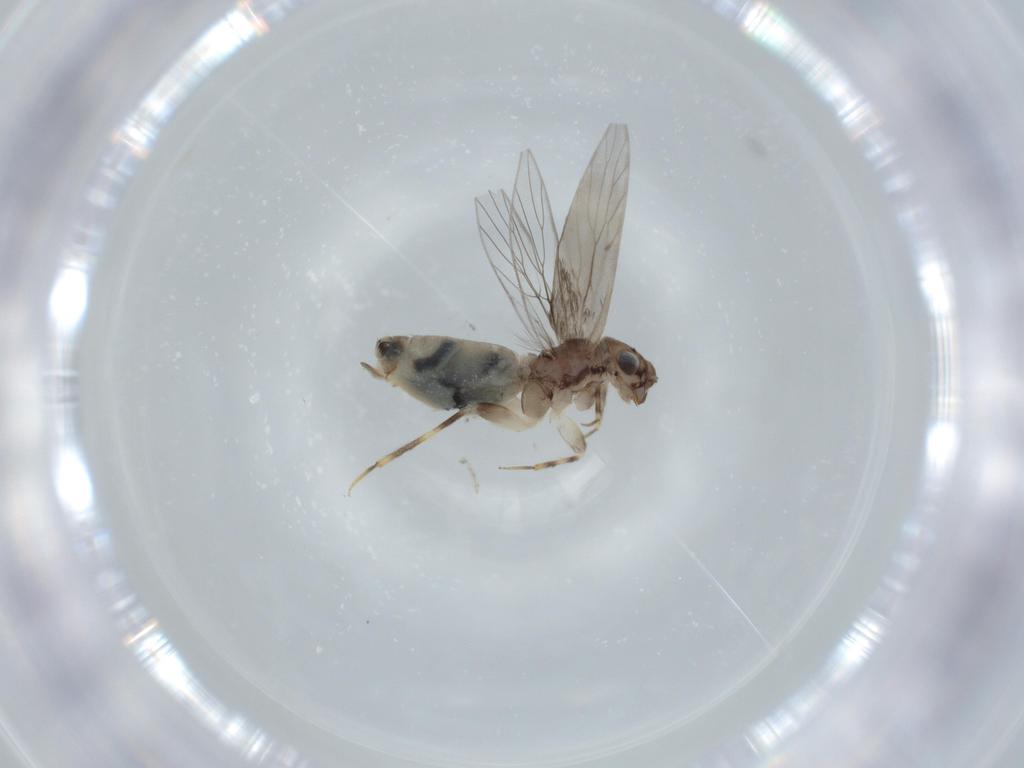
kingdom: Animalia
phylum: Arthropoda
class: Insecta
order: Psocodea
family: Lepidopsocidae
